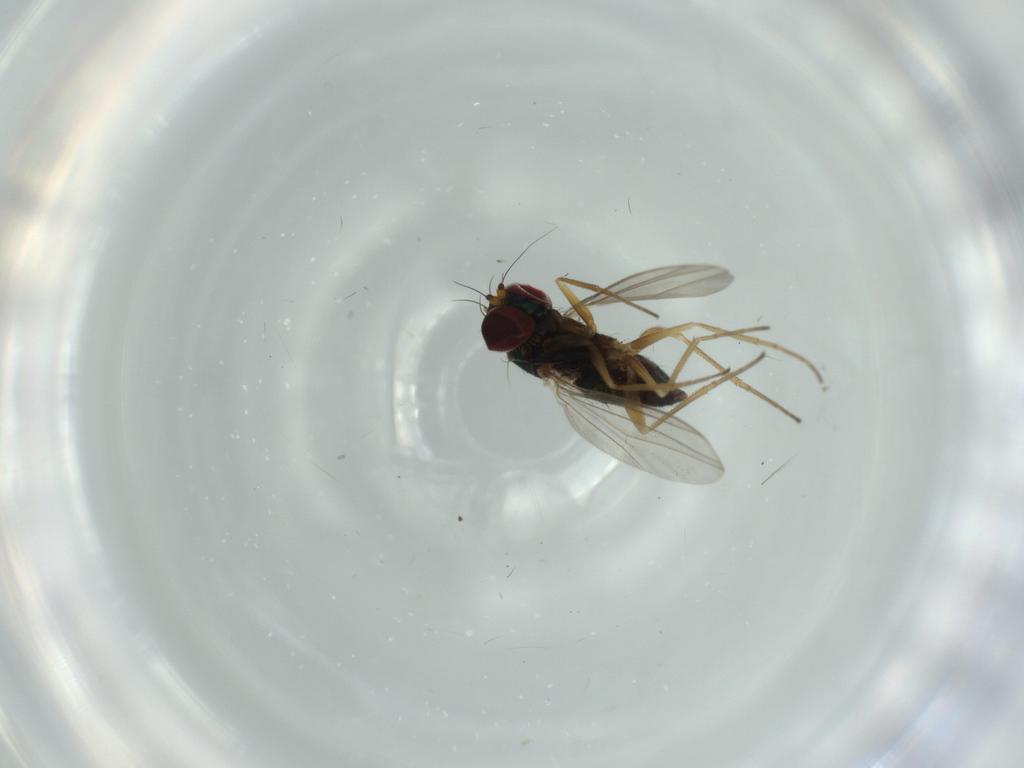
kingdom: Animalia
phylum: Arthropoda
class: Insecta
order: Diptera
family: Dolichopodidae
